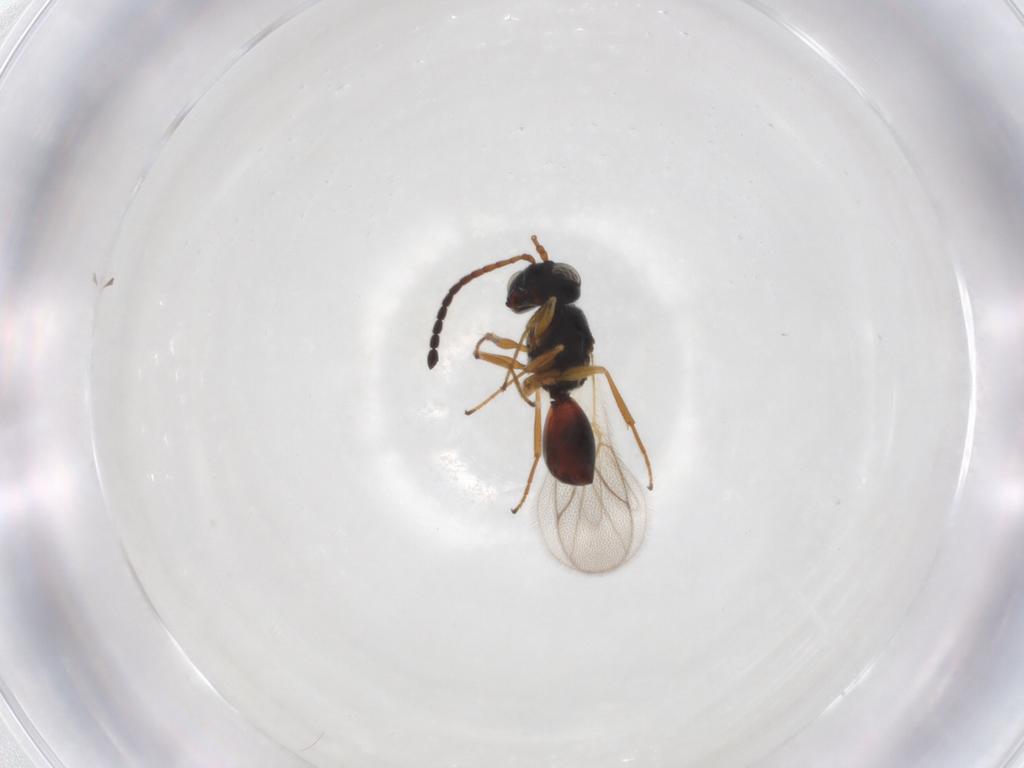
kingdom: Animalia
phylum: Arthropoda
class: Insecta
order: Hymenoptera
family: Figitidae
